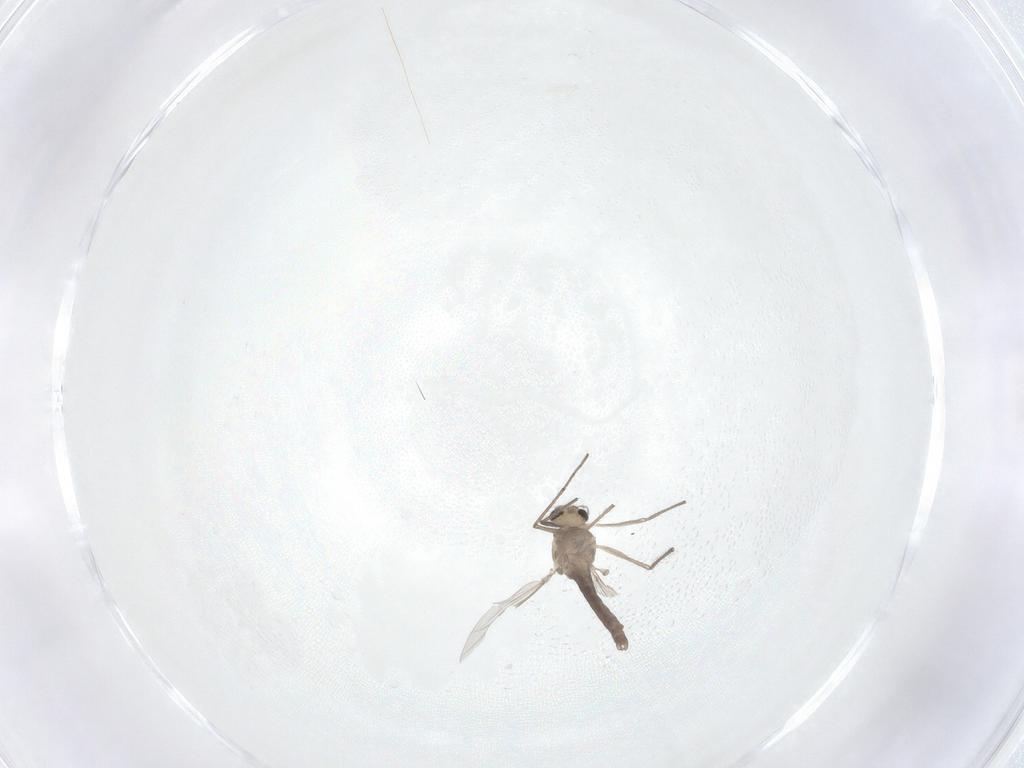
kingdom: Animalia
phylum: Arthropoda
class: Insecta
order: Diptera
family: Chironomidae
